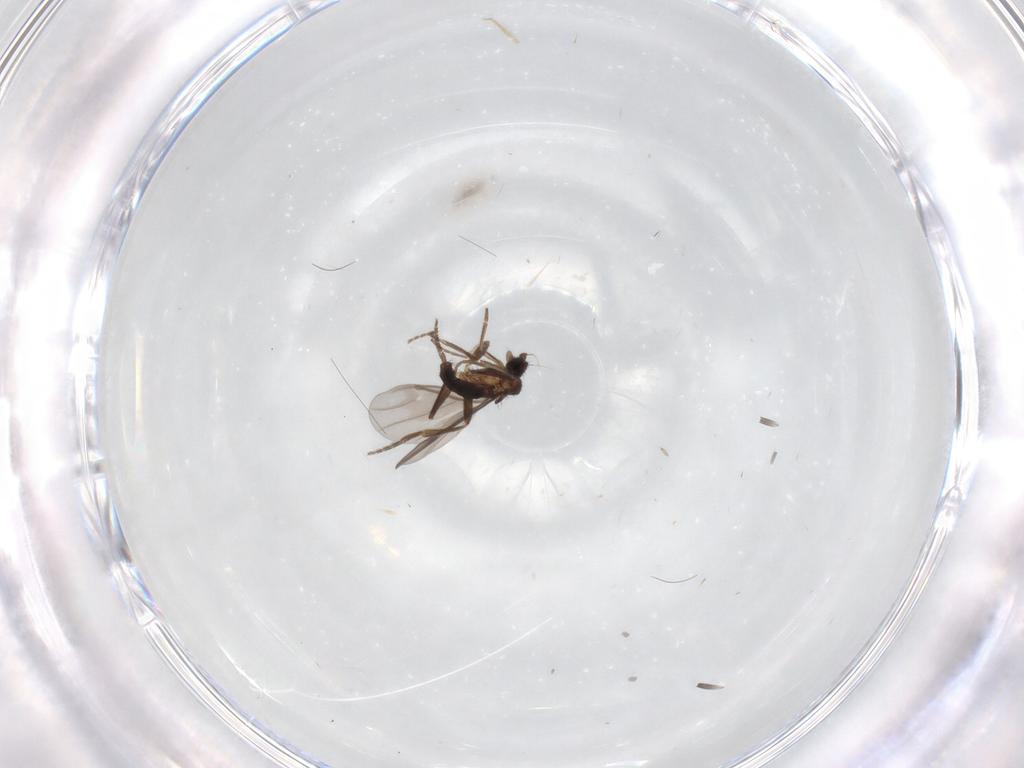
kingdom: Animalia
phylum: Arthropoda
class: Insecta
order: Diptera
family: Phoridae
